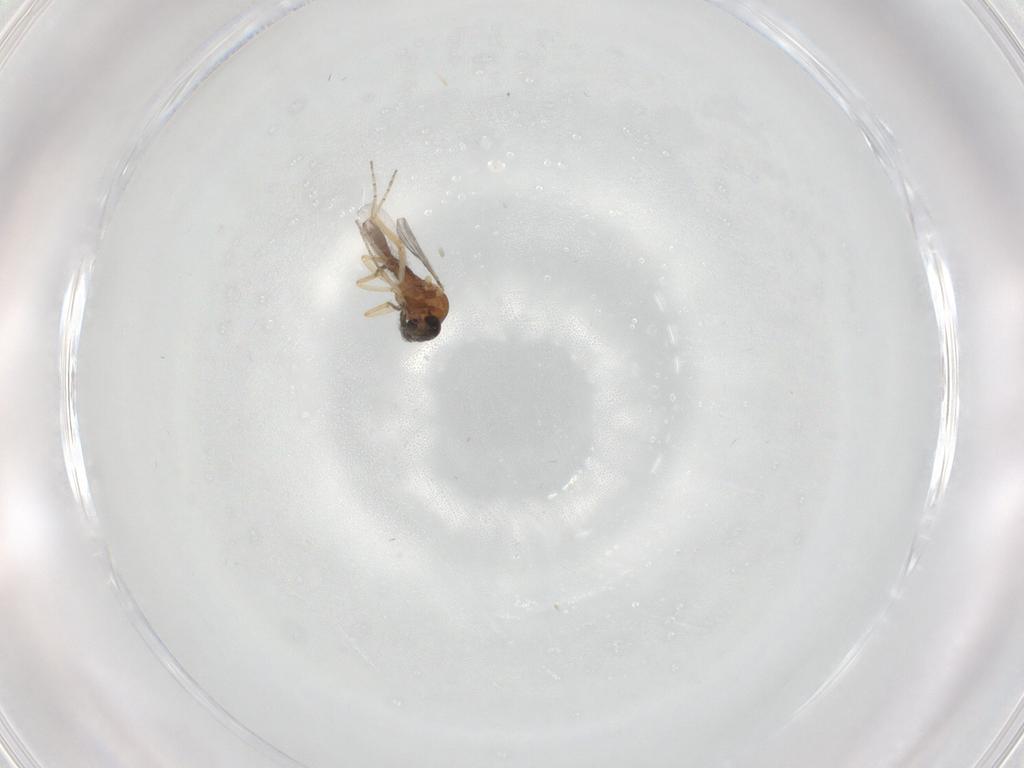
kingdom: Animalia
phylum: Arthropoda
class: Insecta
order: Diptera
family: Ceratopogonidae
